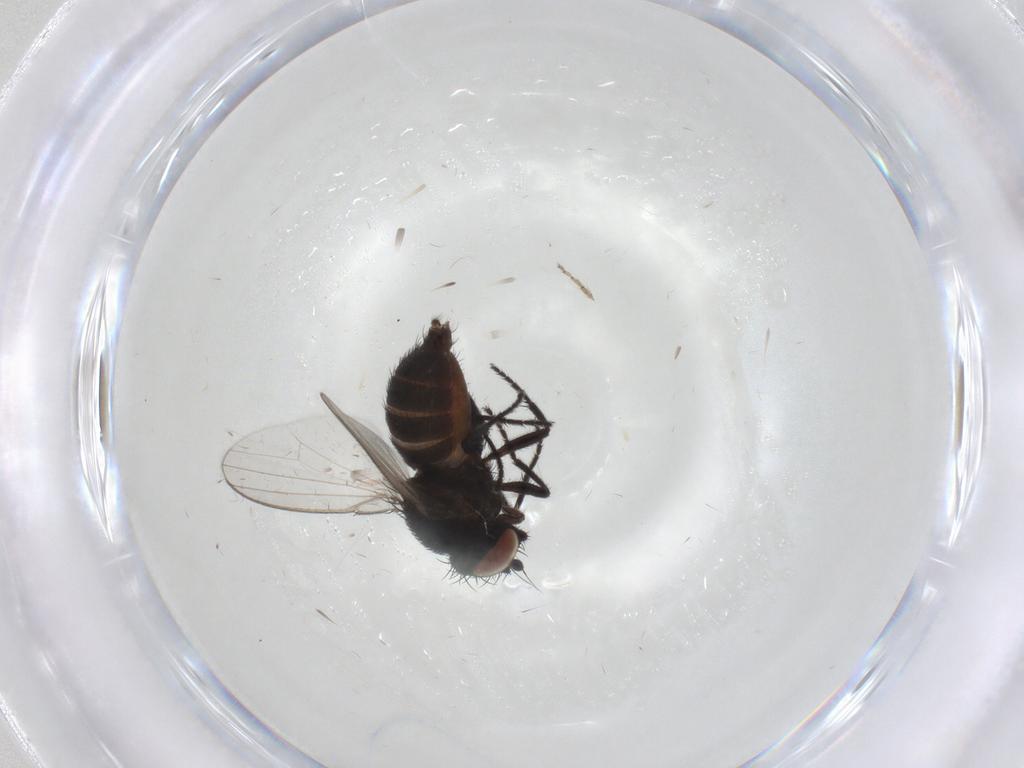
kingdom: Animalia
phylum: Arthropoda
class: Insecta
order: Diptera
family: Milichiidae
